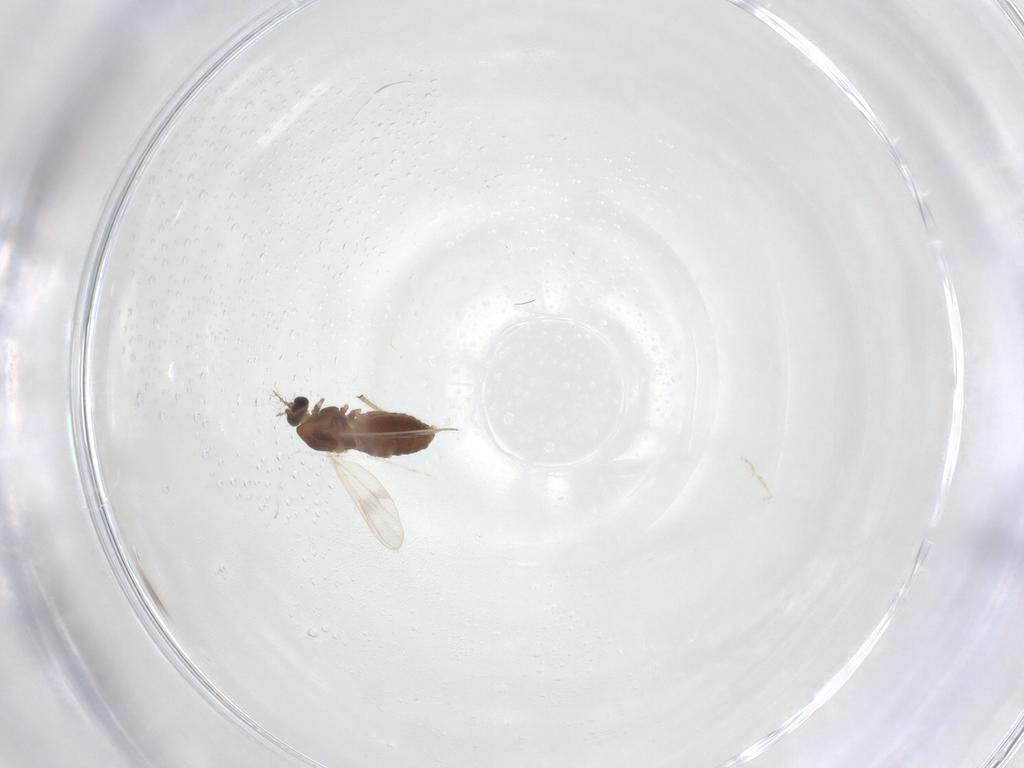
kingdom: Animalia
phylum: Arthropoda
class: Insecta
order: Diptera
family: Chironomidae
